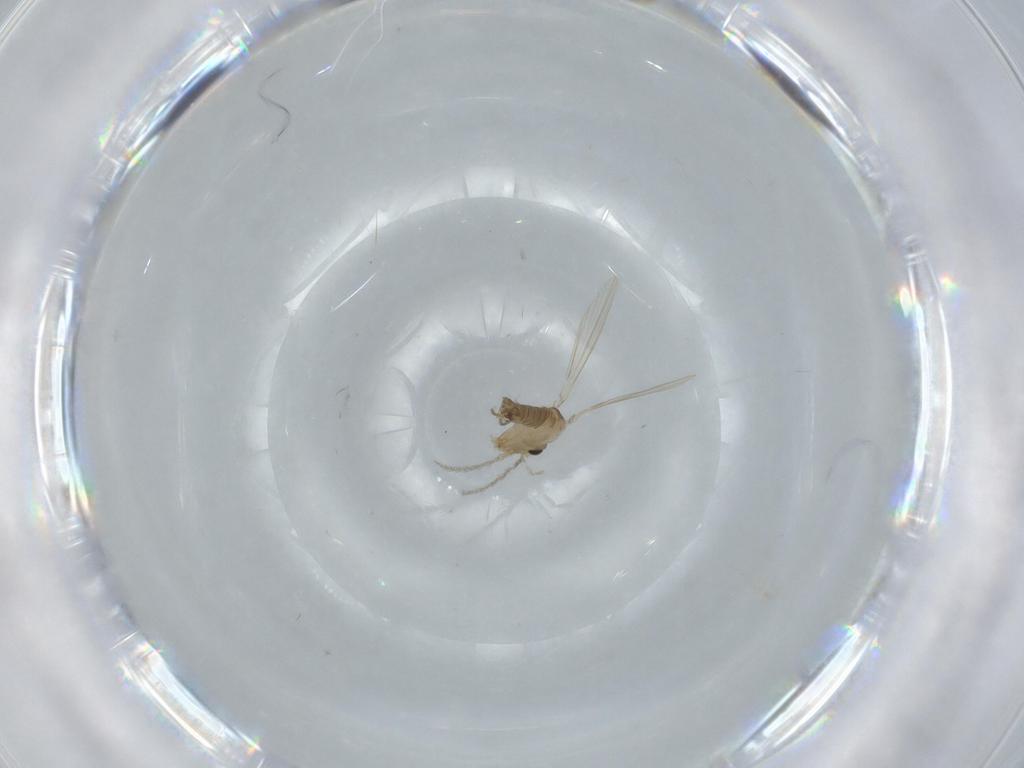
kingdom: Animalia
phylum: Arthropoda
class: Insecta
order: Diptera
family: Psychodidae
